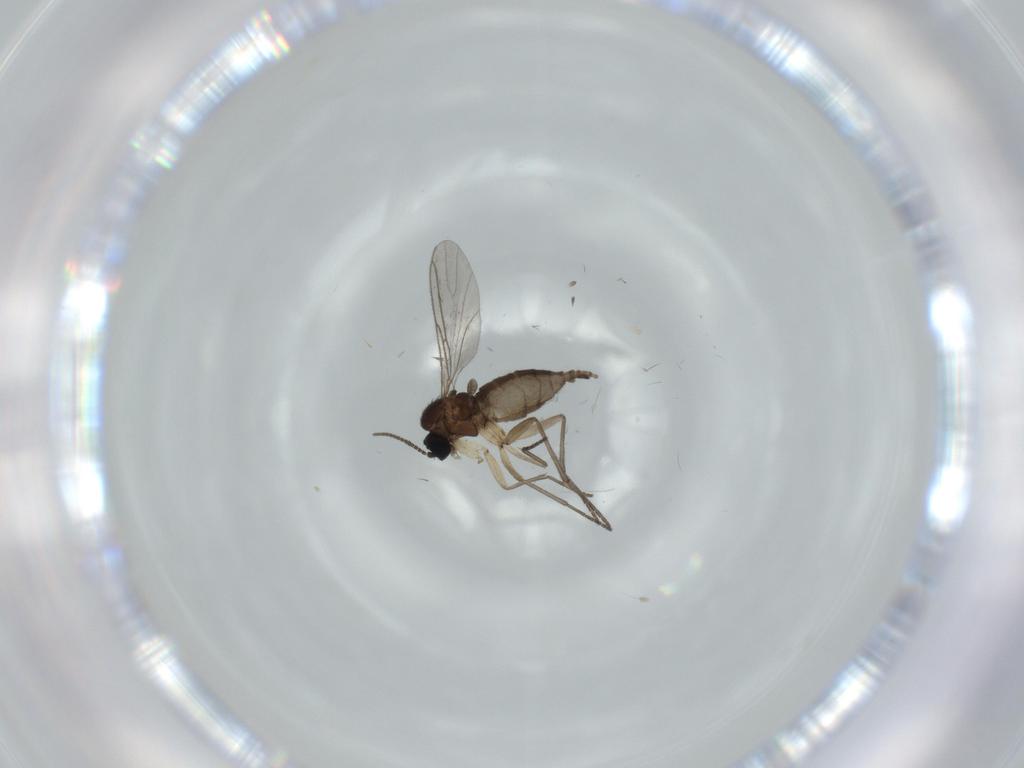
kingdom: Animalia
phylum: Arthropoda
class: Insecta
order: Diptera
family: Sciaridae
